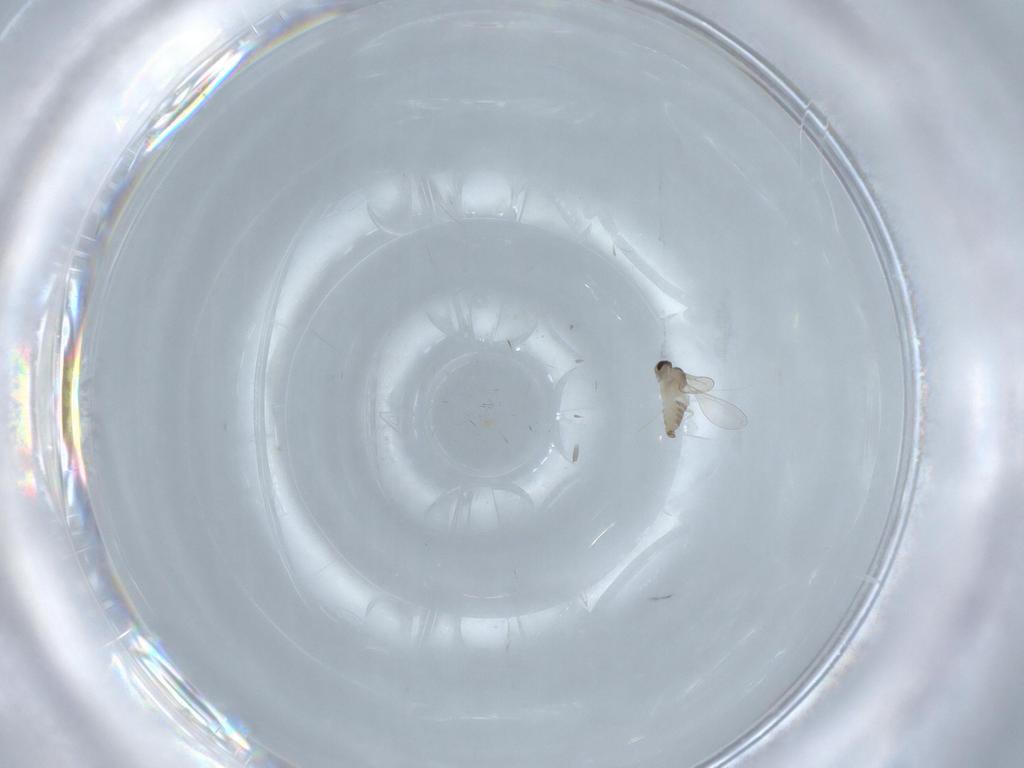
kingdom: Animalia
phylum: Arthropoda
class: Insecta
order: Diptera
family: Cecidomyiidae
